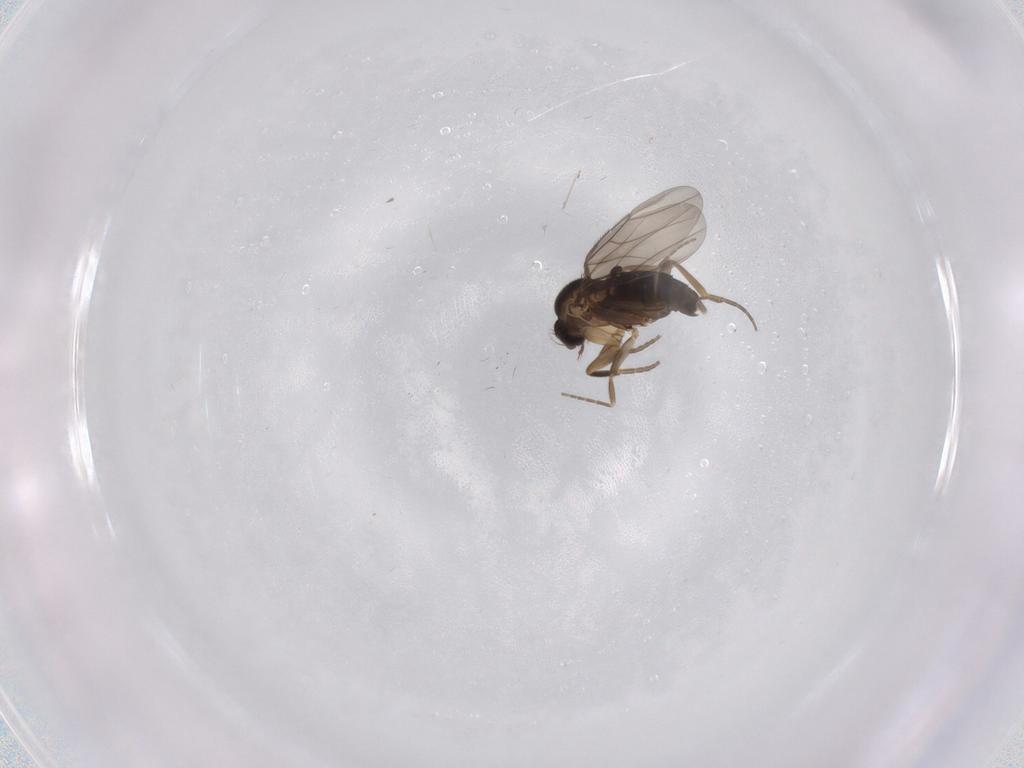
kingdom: Animalia
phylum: Arthropoda
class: Insecta
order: Diptera
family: Phoridae
